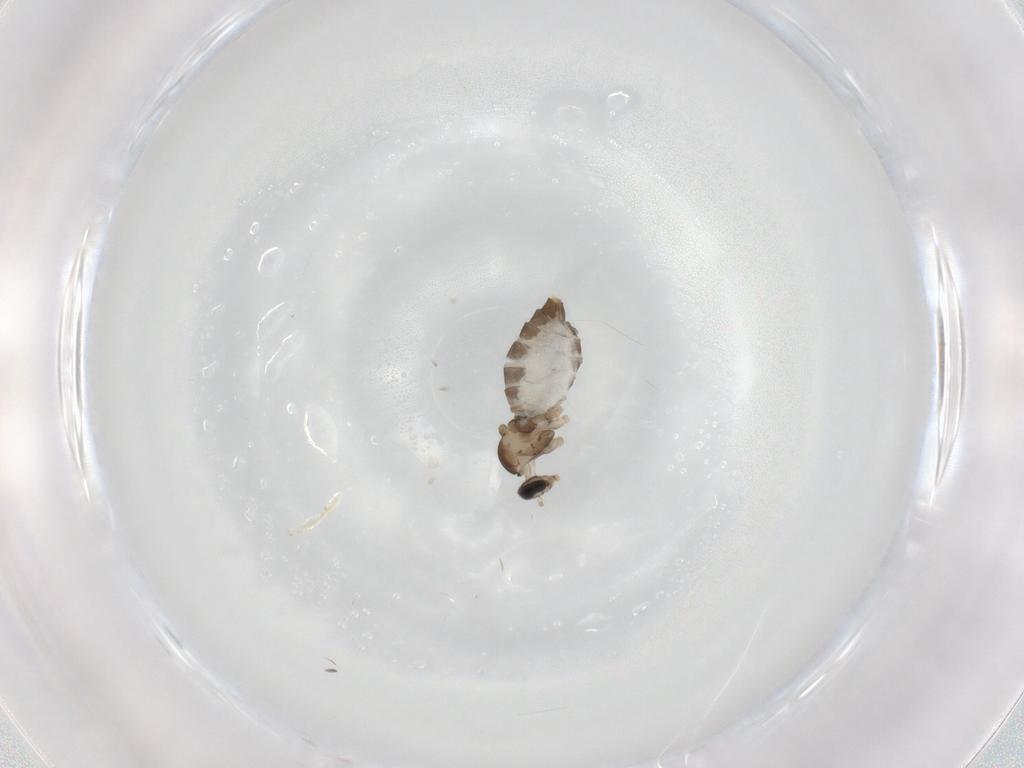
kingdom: Animalia
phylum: Arthropoda
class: Insecta
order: Diptera
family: Cecidomyiidae
